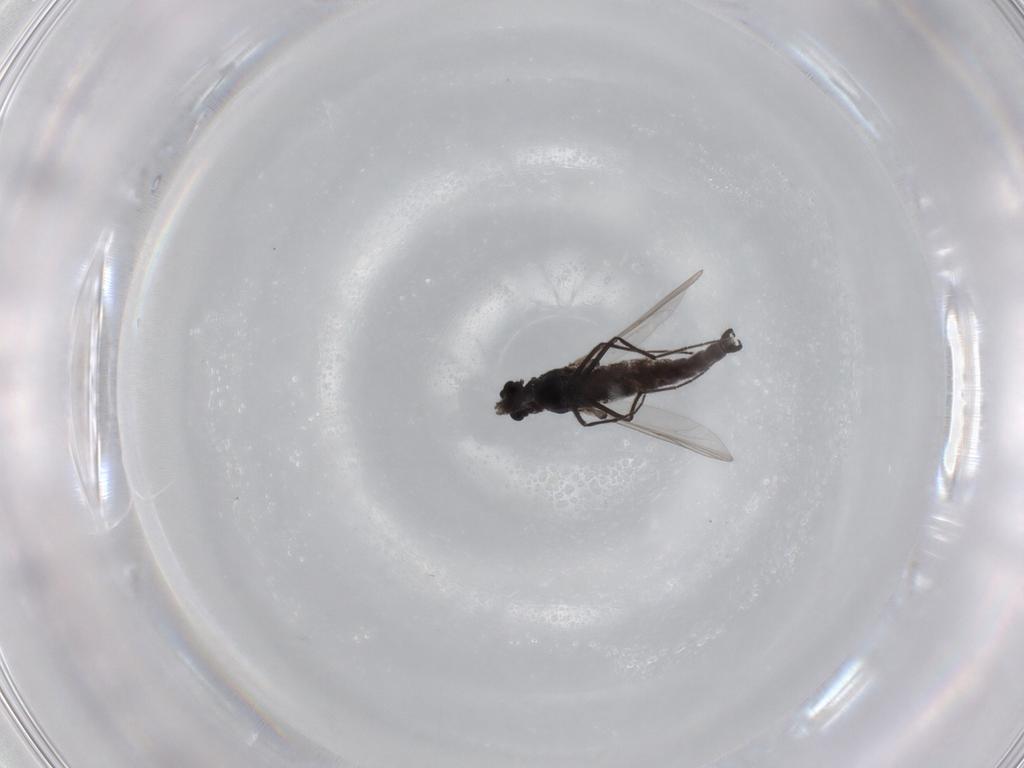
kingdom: Animalia
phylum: Arthropoda
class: Insecta
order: Diptera
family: Chironomidae
